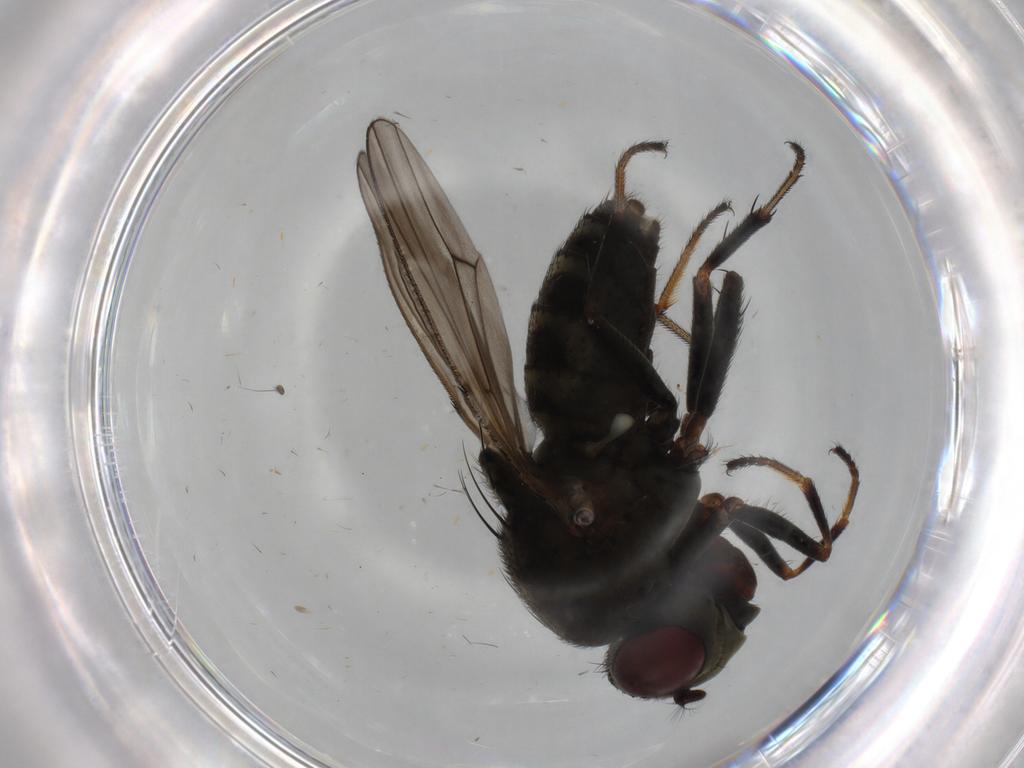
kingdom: Animalia
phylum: Arthropoda
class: Insecta
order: Diptera
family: Ephydridae
